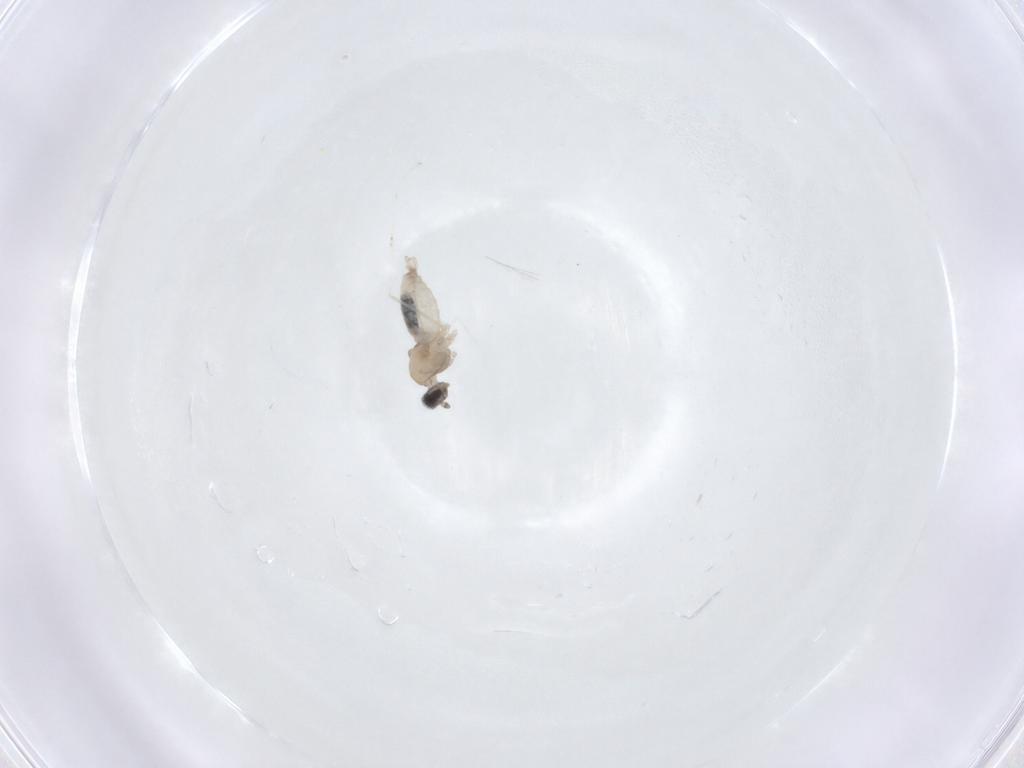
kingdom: Animalia
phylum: Arthropoda
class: Insecta
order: Diptera
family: Cecidomyiidae
